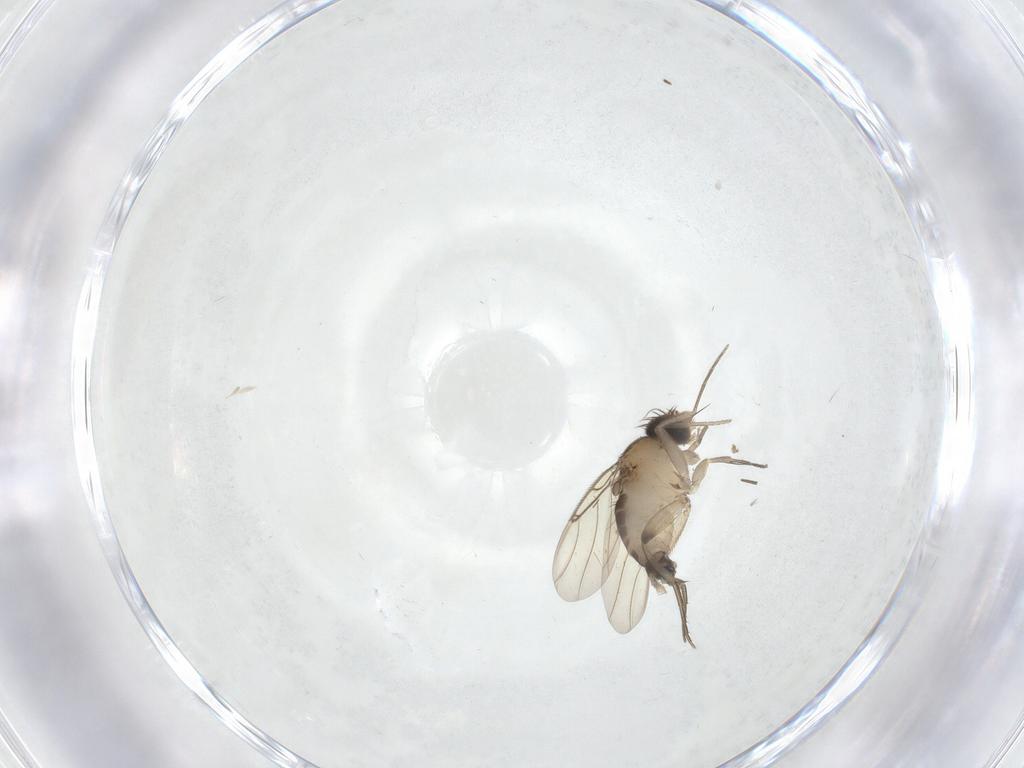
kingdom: Animalia
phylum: Arthropoda
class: Insecta
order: Diptera
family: Phoridae
